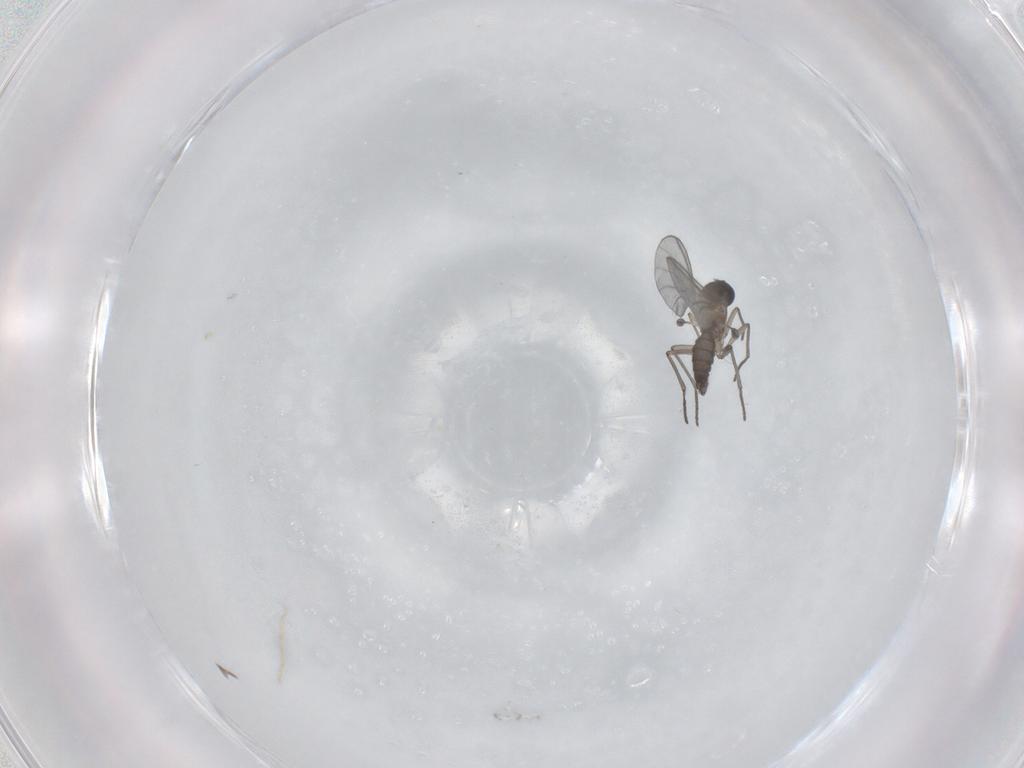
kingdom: Animalia
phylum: Arthropoda
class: Insecta
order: Diptera
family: Sciaridae
